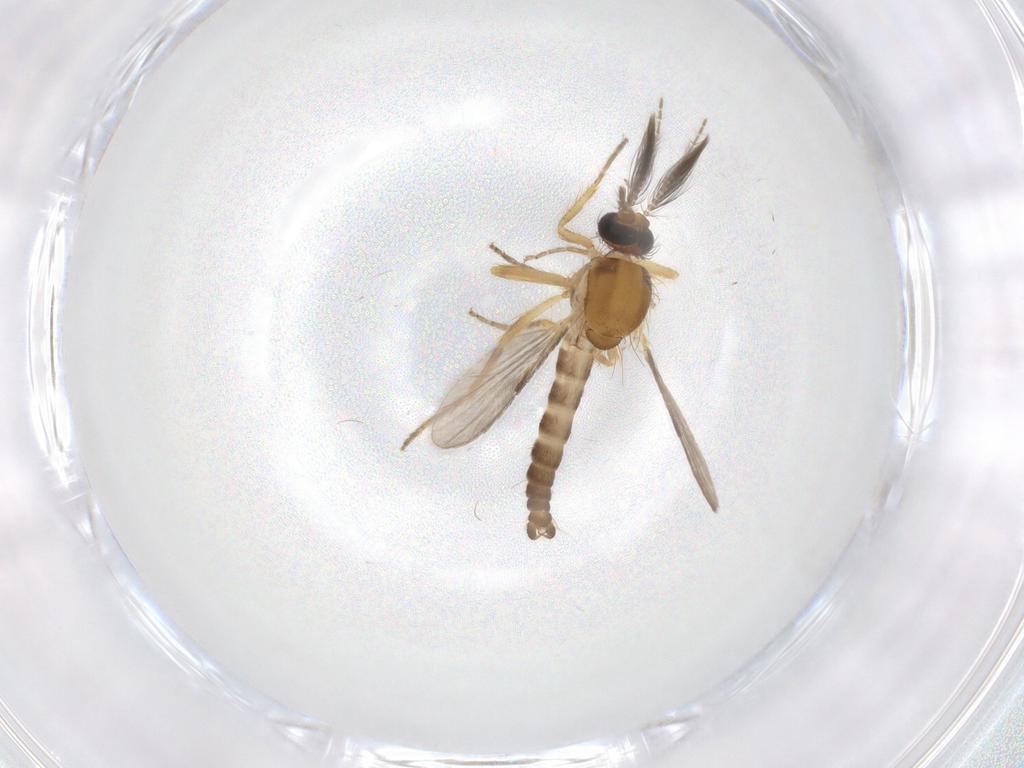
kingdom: Animalia
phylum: Arthropoda
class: Insecta
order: Diptera
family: Ceratopogonidae
